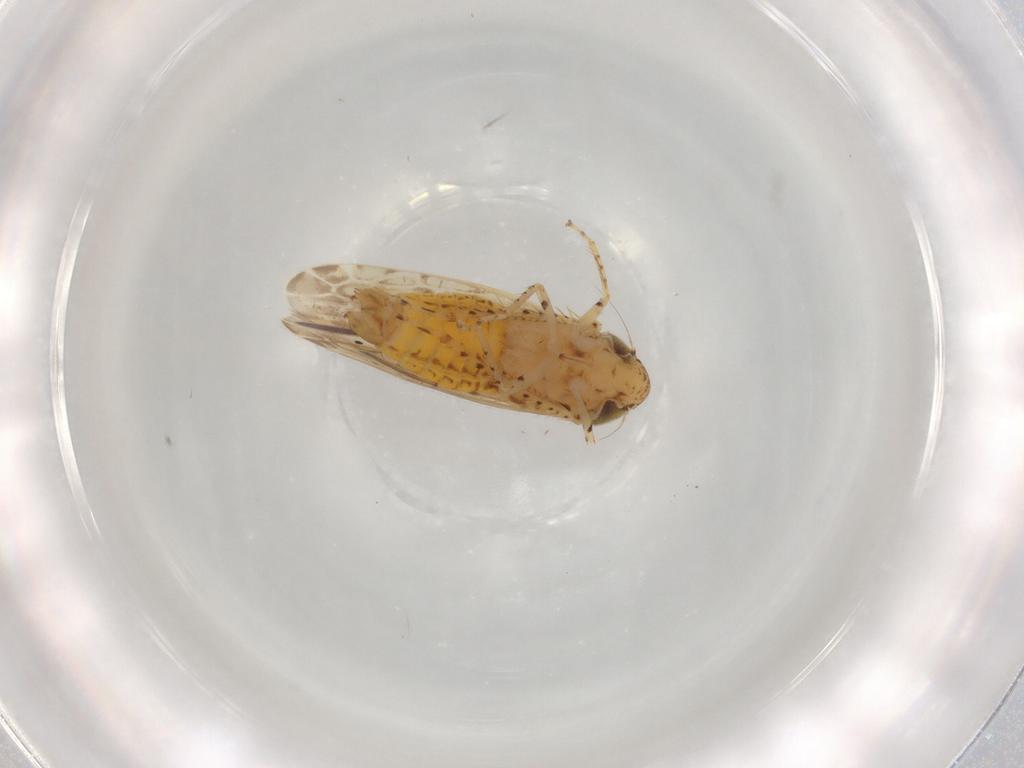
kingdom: Animalia
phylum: Arthropoda
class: Insecta
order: Hemiptera
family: Cicadellidae
